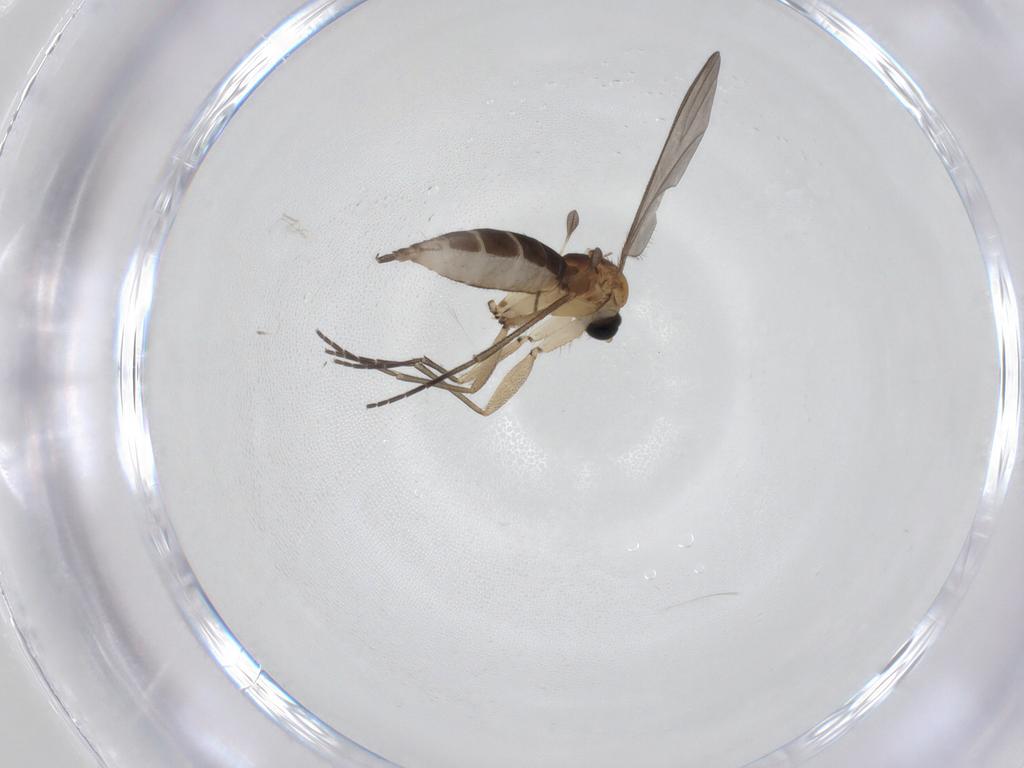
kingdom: Animalia
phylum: Arthropoda
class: Insecta
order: Diptera
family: Sciaridae
